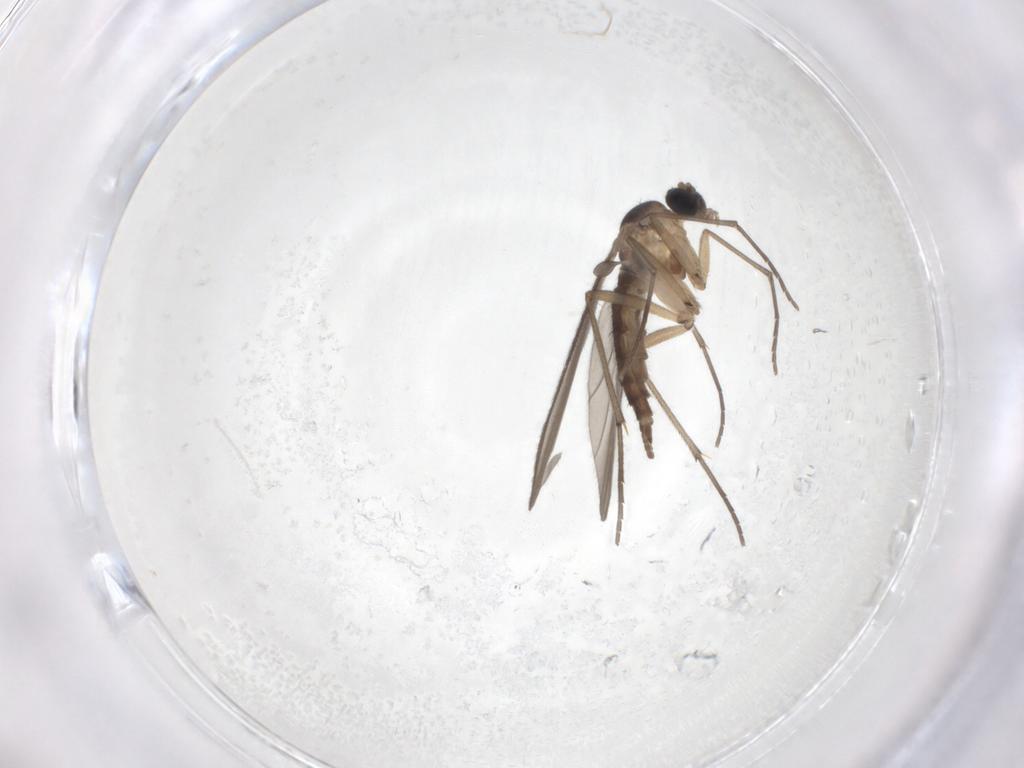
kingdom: Animalia
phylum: Arthropoda
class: Insecta
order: Diptera
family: Sciaridae
